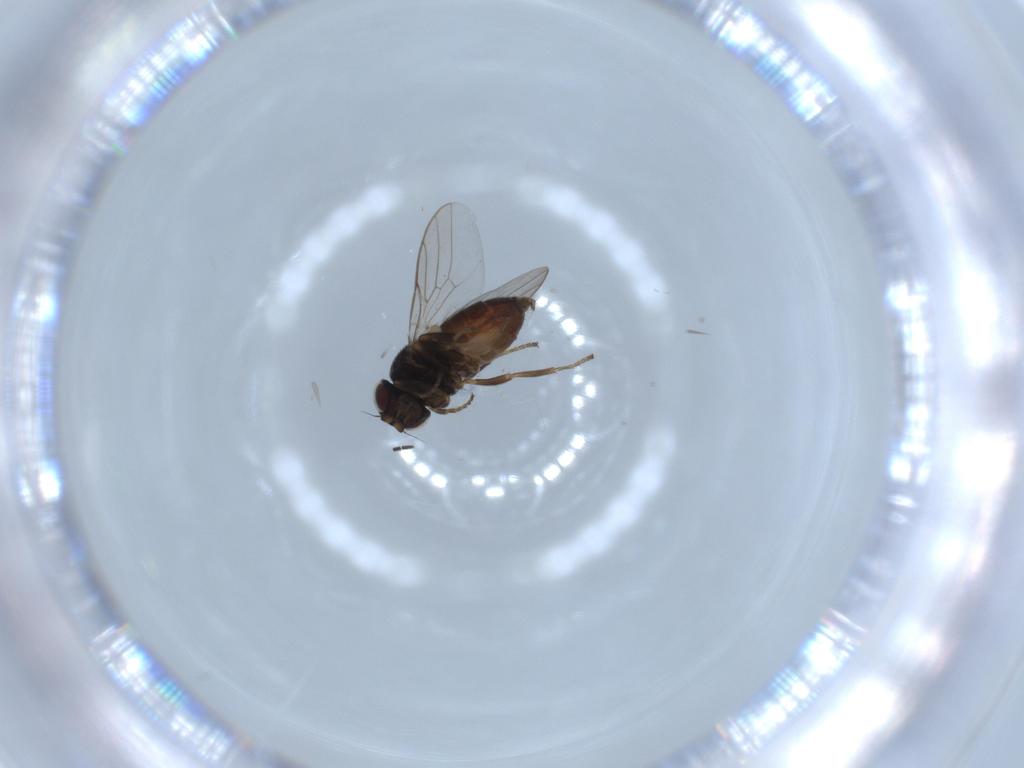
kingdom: Animalia
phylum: Arthropoda
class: Insecta
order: Diptera
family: Chloropidae
